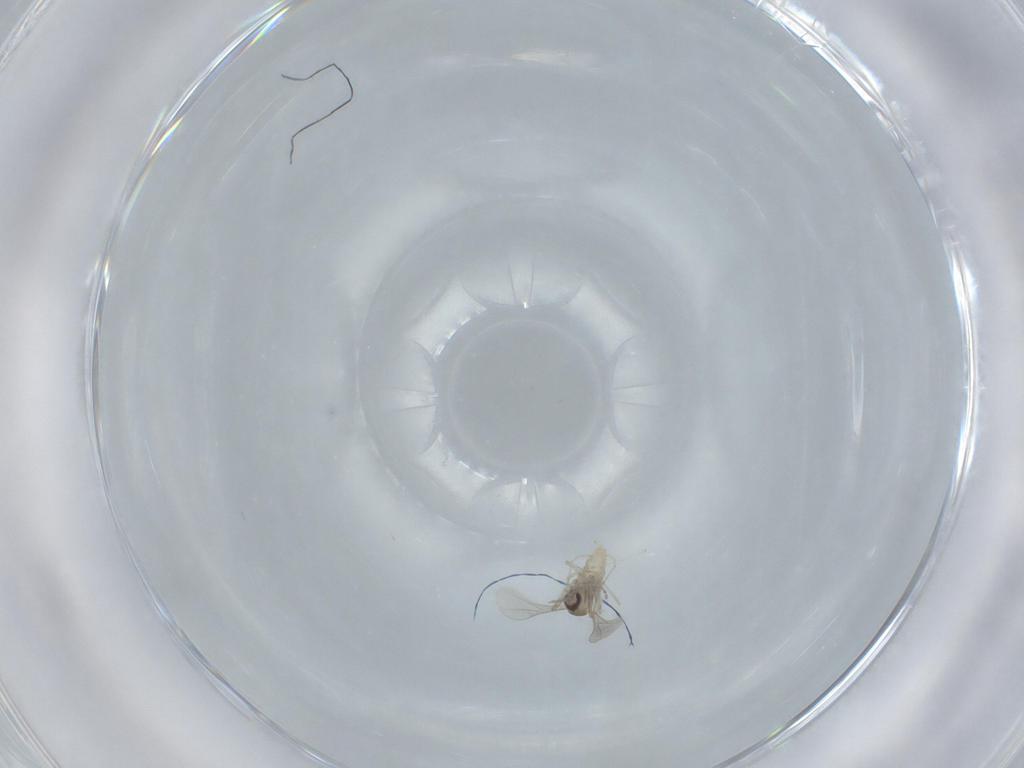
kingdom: Animalia
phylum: Arthropoda
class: Insecta
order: Diptera
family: Cecidomyiidae
